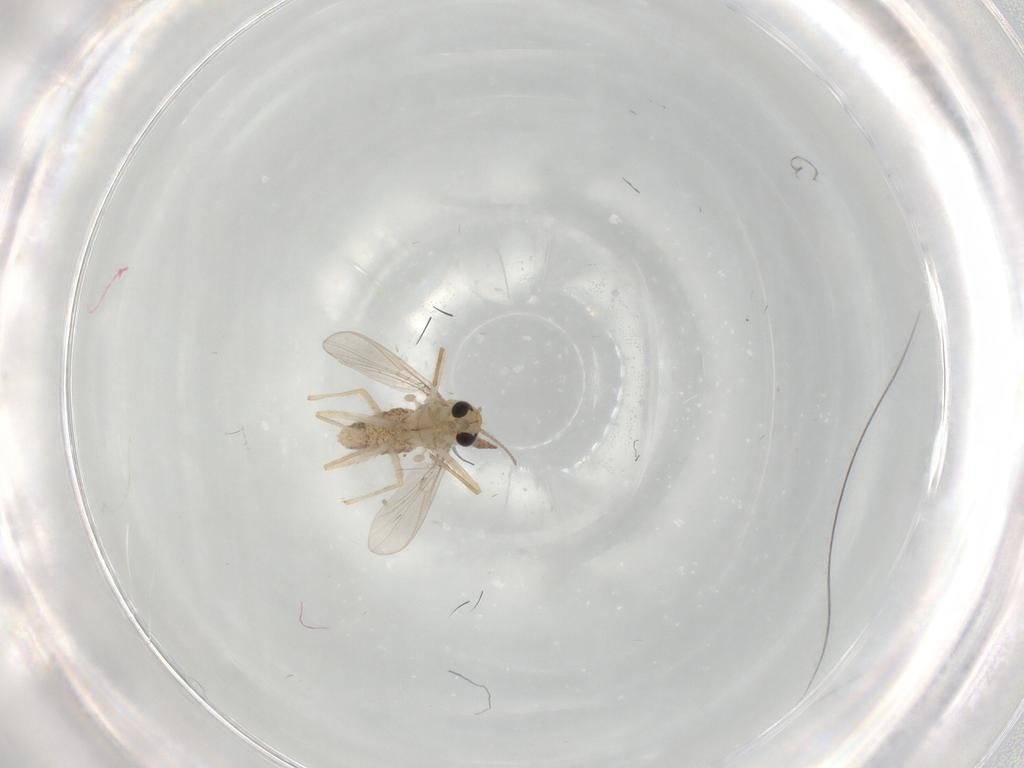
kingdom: Animalia
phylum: Arthropoda
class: Insecta
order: Diptera
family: Chironomidae
